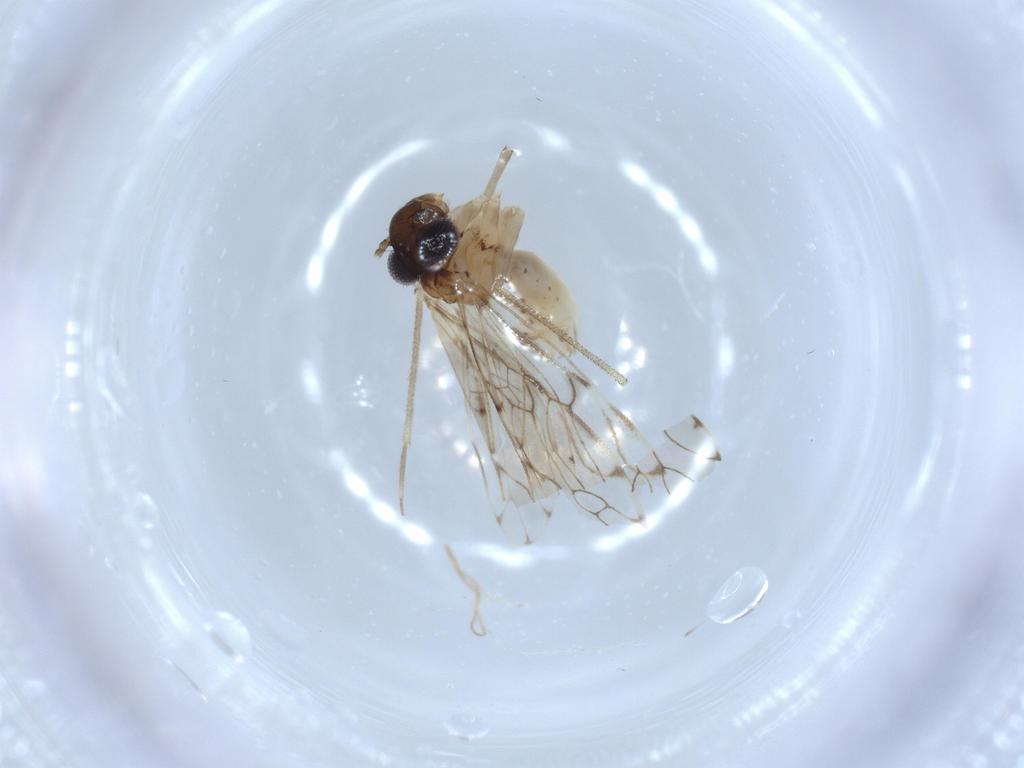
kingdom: Animalia
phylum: Arthropoda
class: Insecta
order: Psocodea
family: Epipsocidae
